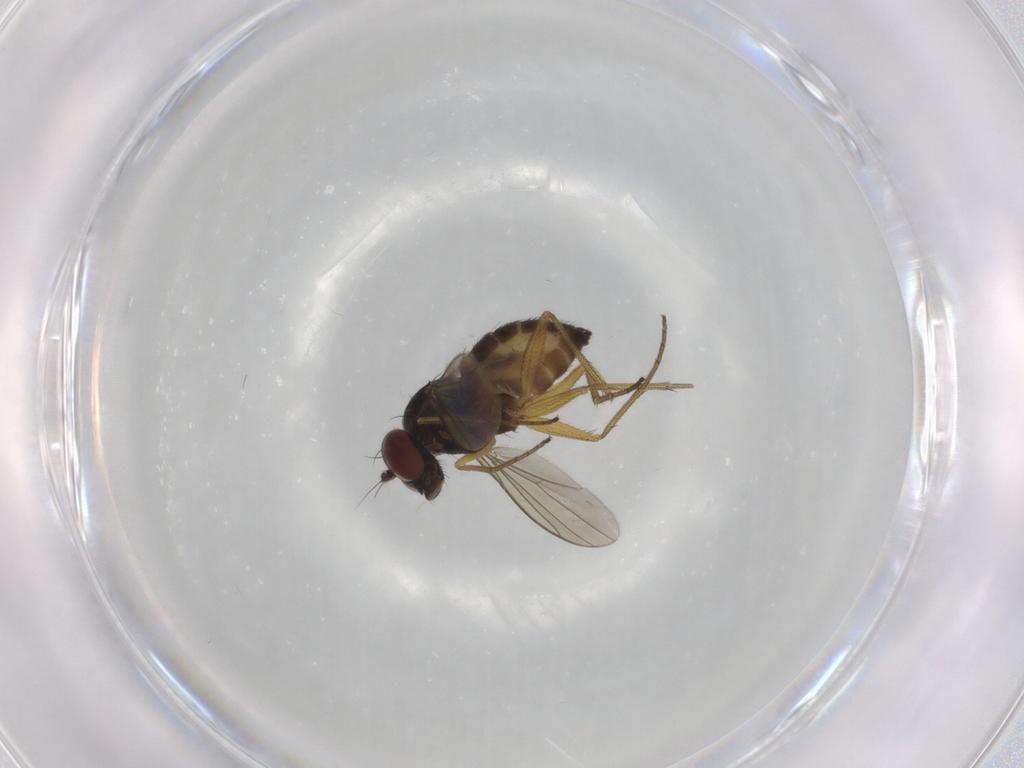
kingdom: Animalia
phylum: Arthropoda
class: Insecta
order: Diptera
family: Dolichopodidae
